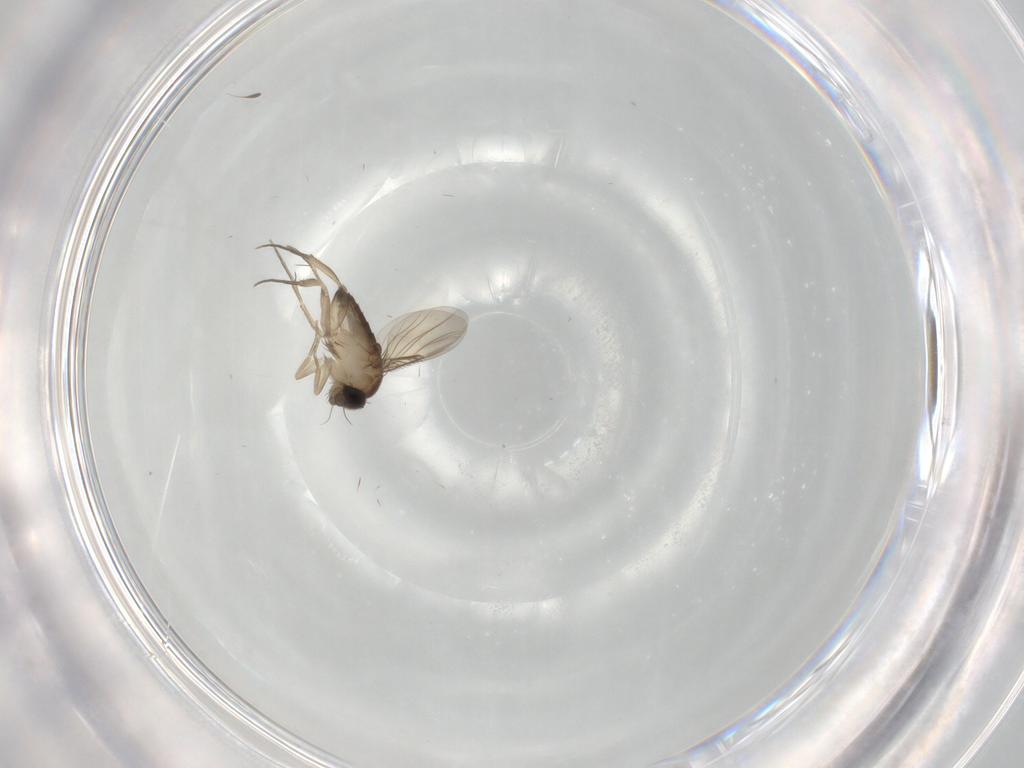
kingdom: Animalia
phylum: Arthropoda
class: Insecta
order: Diptera
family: Phoridae
